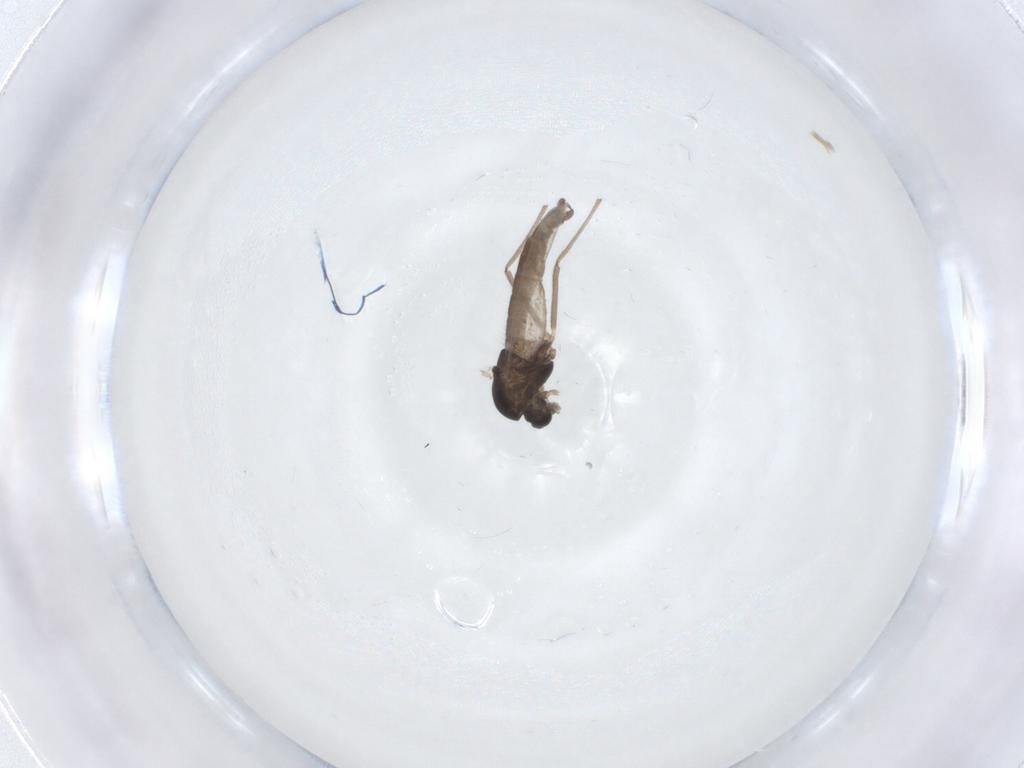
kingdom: Animalia
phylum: Arthropoda
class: Insecta
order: Diptera
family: Chironomidae
